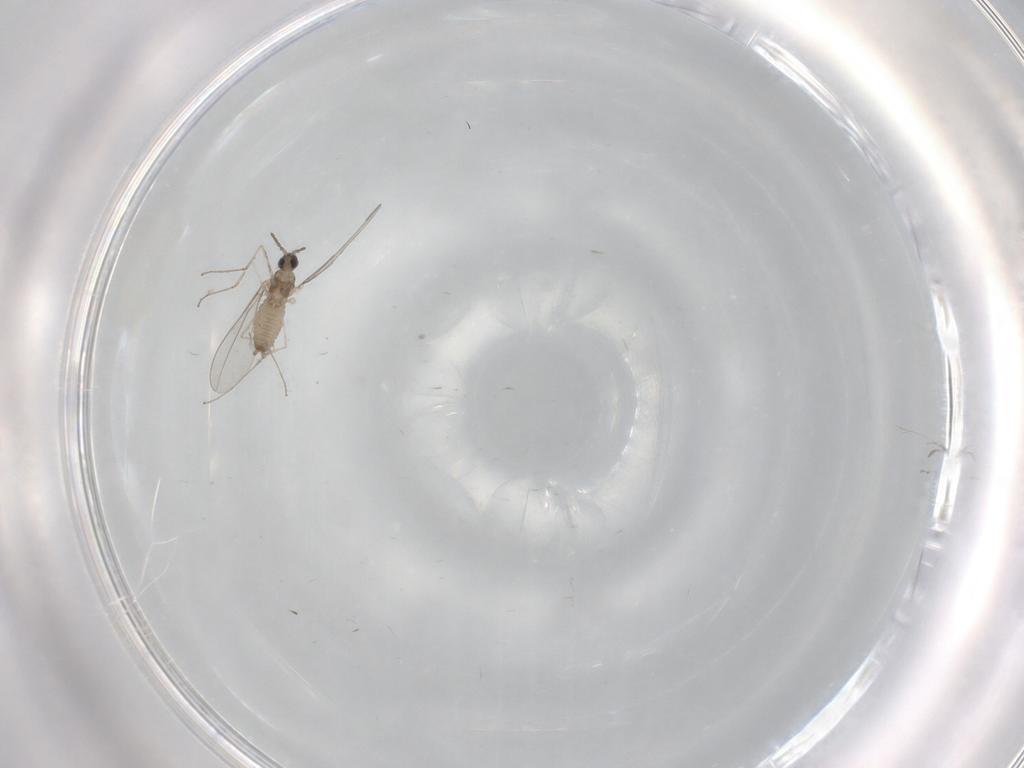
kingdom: Animalia
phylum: Arthropoda
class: Insecta
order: Diptera
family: Cecidomyiidae
